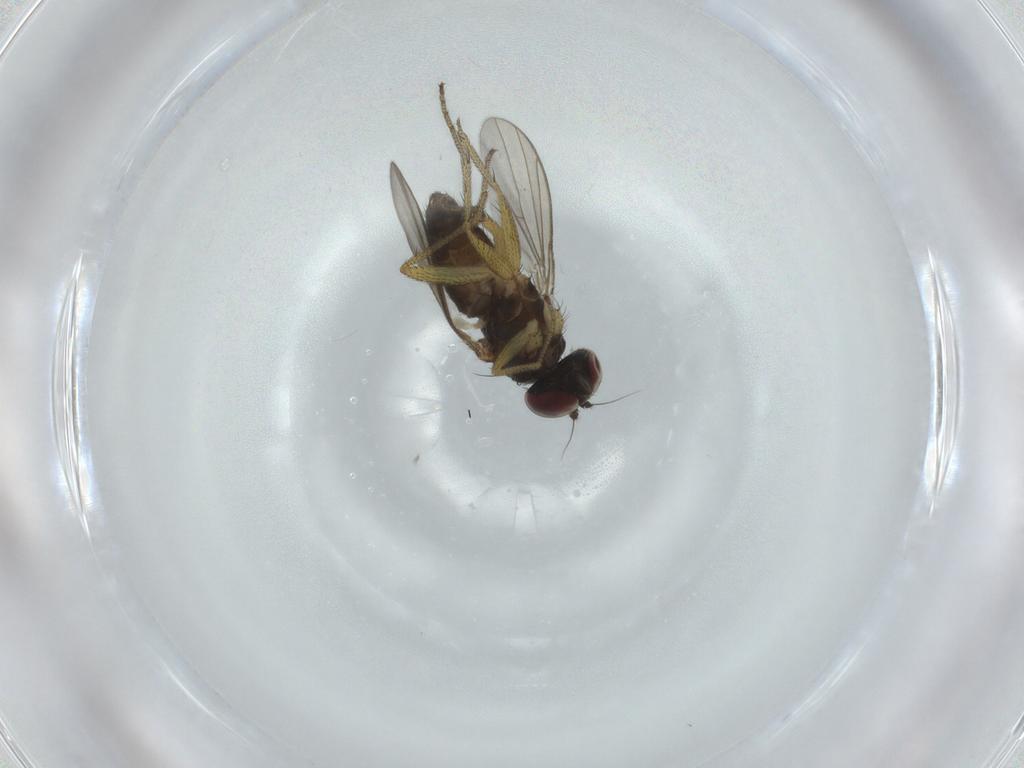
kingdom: Animalia
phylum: Arthropoda
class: Insecta
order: Diptera
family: Dolichopodidae
